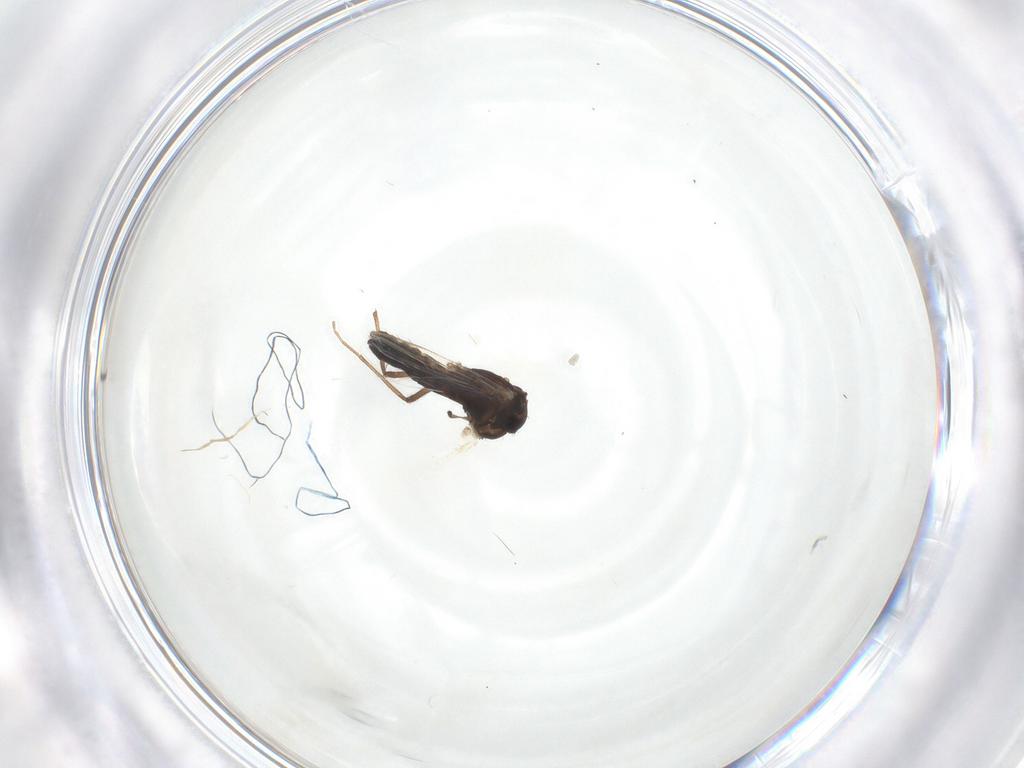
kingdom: Animalia
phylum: Arthropoda
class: Insecta
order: Diptera
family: Chironomidae
